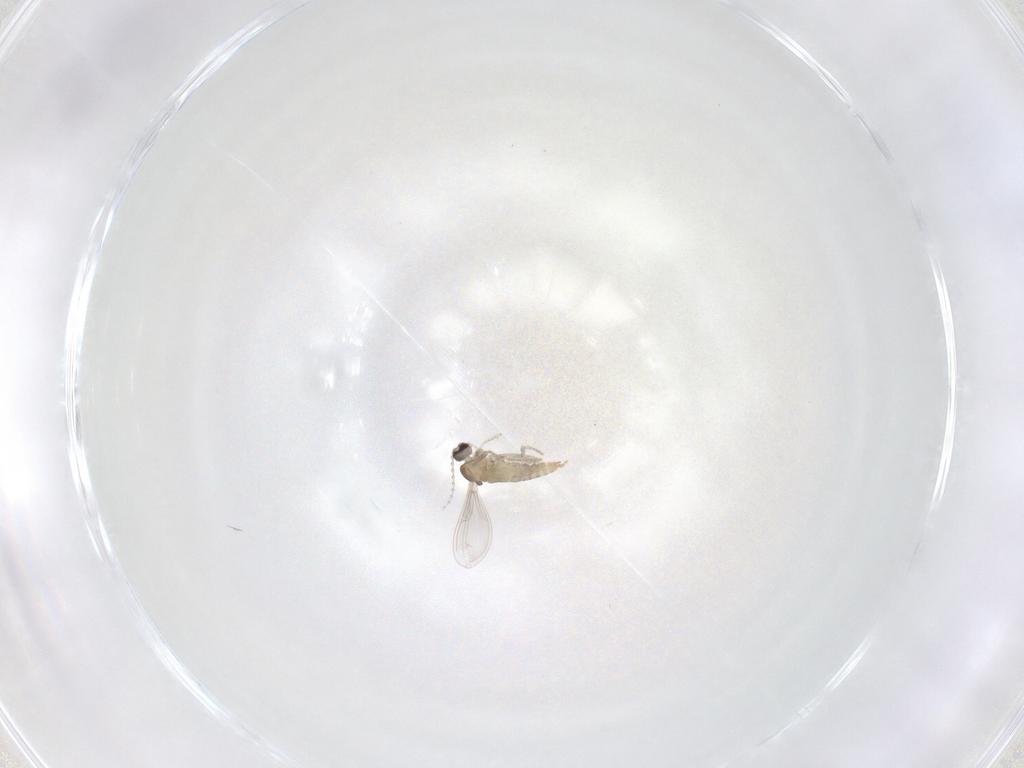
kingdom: Animalia
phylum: Arthropoda
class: Insecta
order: Diptera
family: Cecidomyiidae
